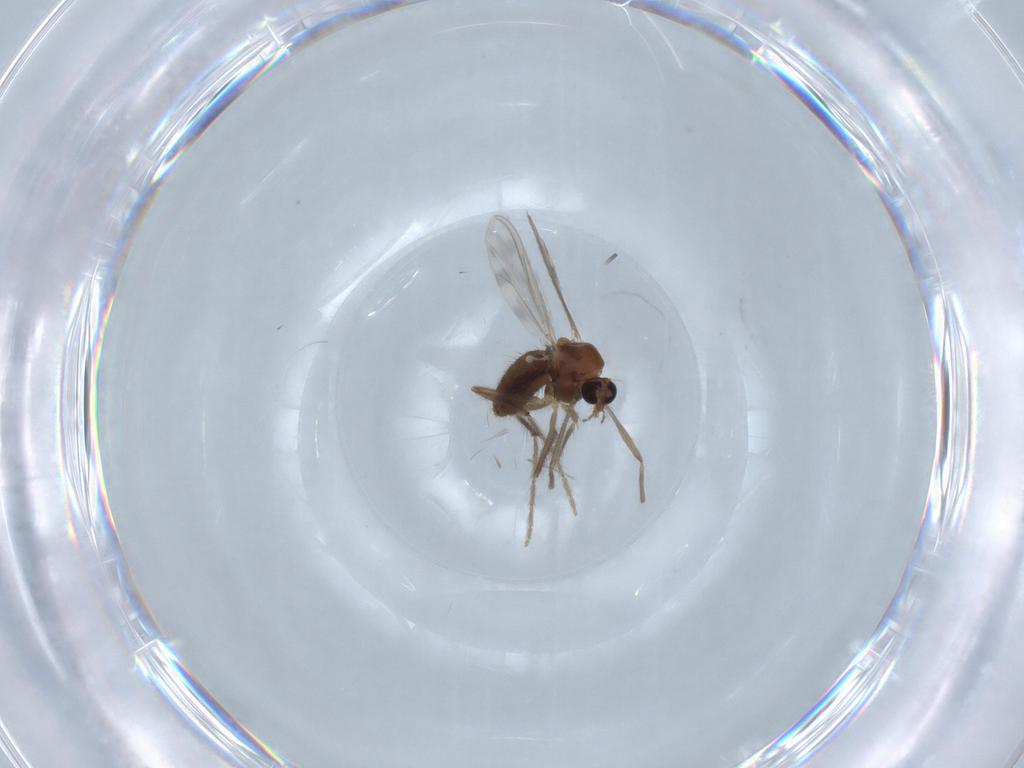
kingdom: Animalia
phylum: Arthropoda
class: Insecta
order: Diptera
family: Chironomidae
